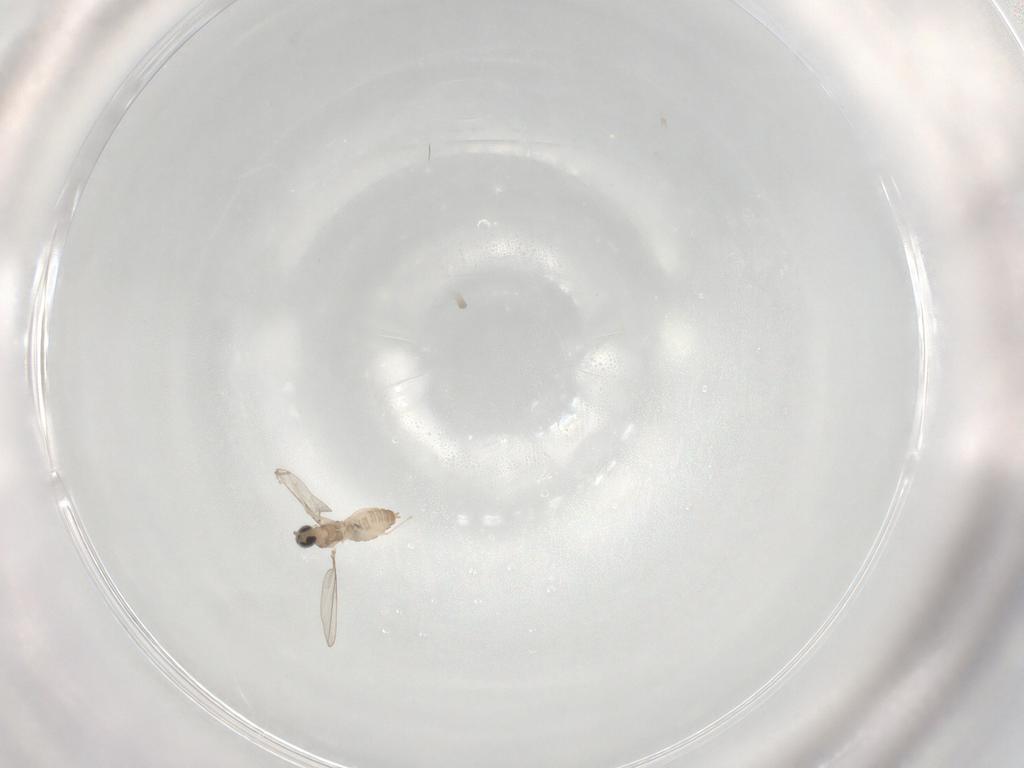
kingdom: Animalia
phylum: Arthropoda
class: Insecta
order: Diptera
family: Cecidomyiidae
